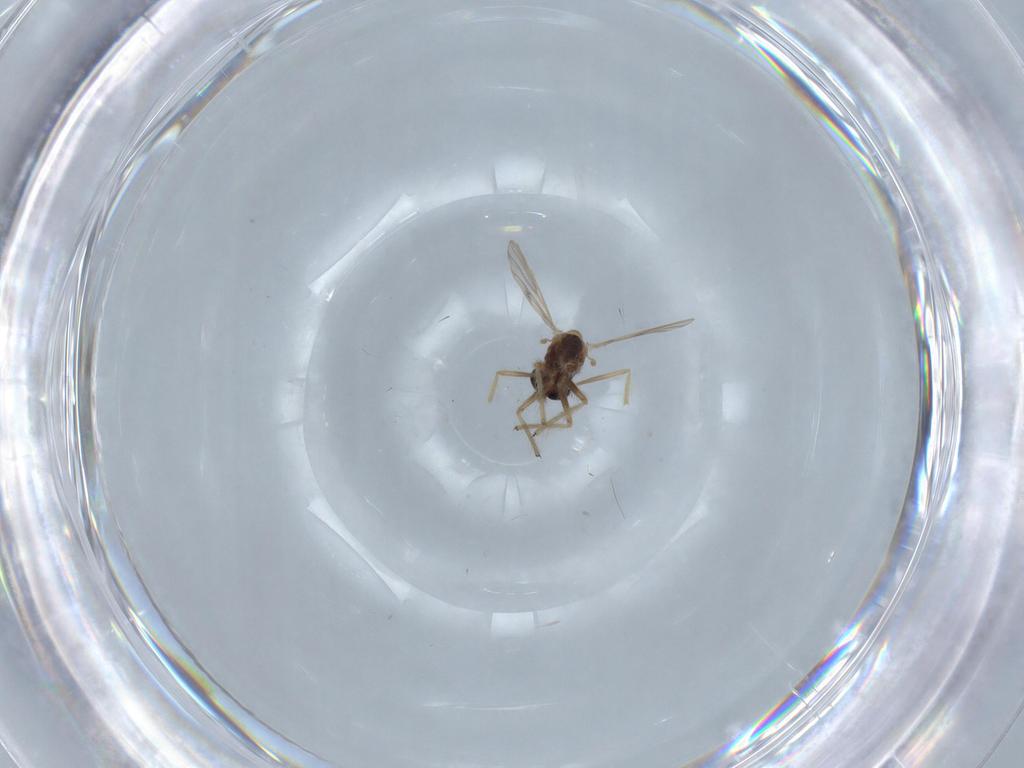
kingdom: Animalia
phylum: Arthropoda
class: Insecta
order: Diptera
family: Chironomidae
